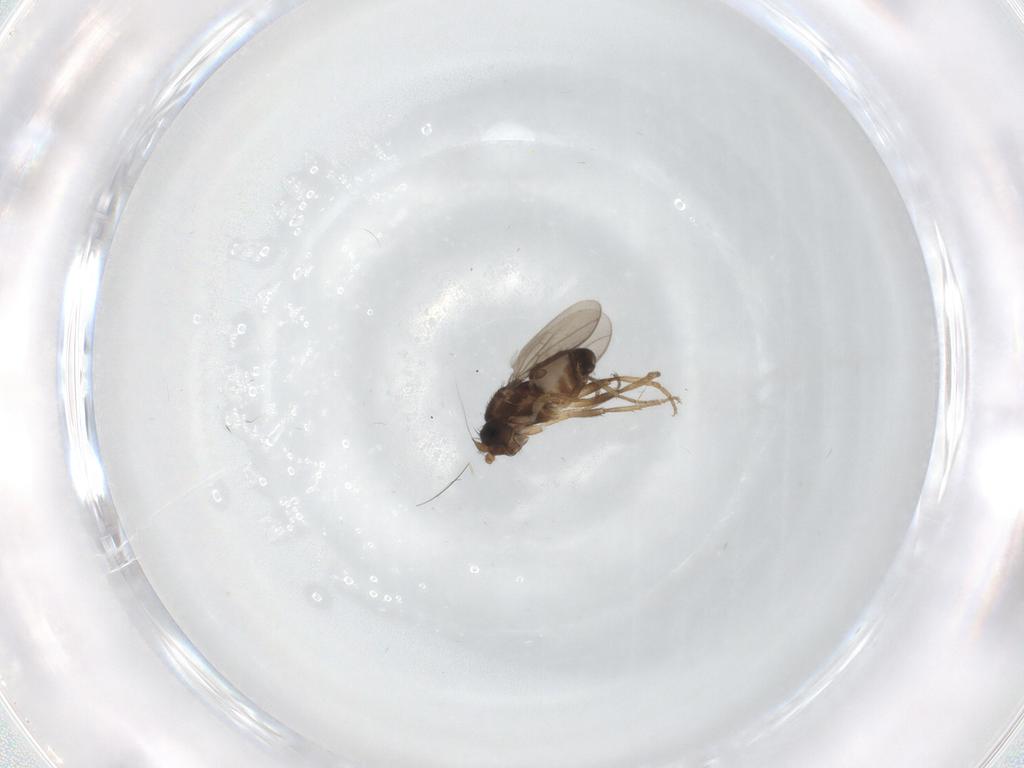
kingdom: Animalia
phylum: Arthropoda
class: Insecta
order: Diptera
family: Sphaeroceridae
